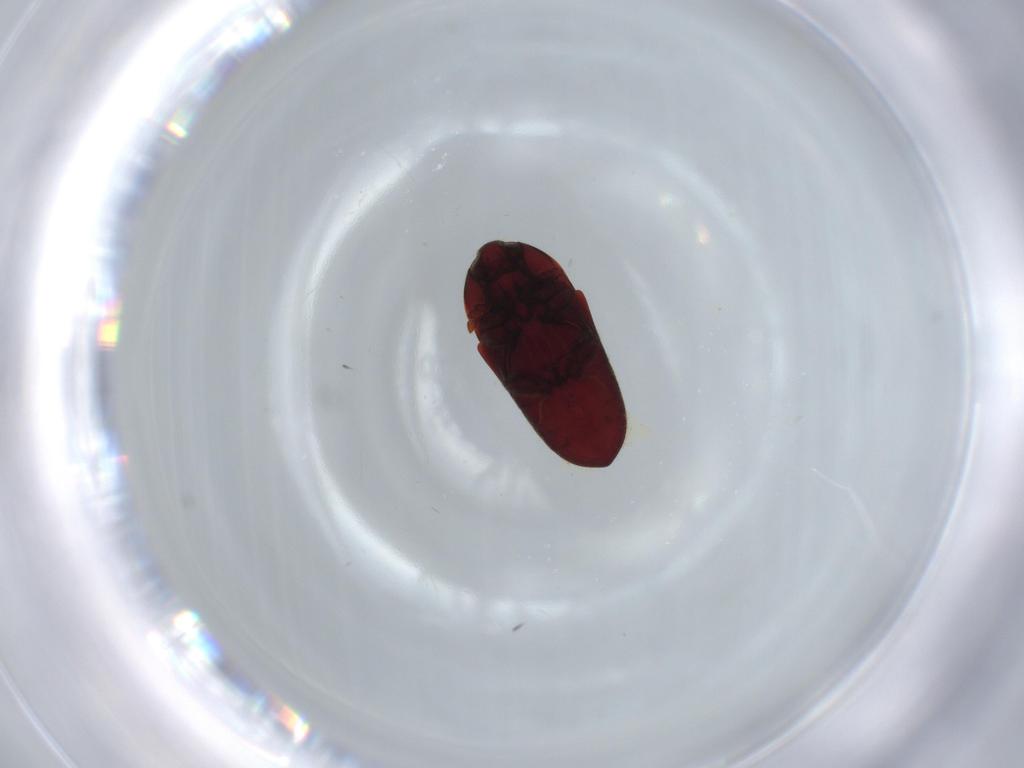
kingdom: Animalia
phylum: Arthropoda
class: Insecta
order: Coleoptera
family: Throscidae
